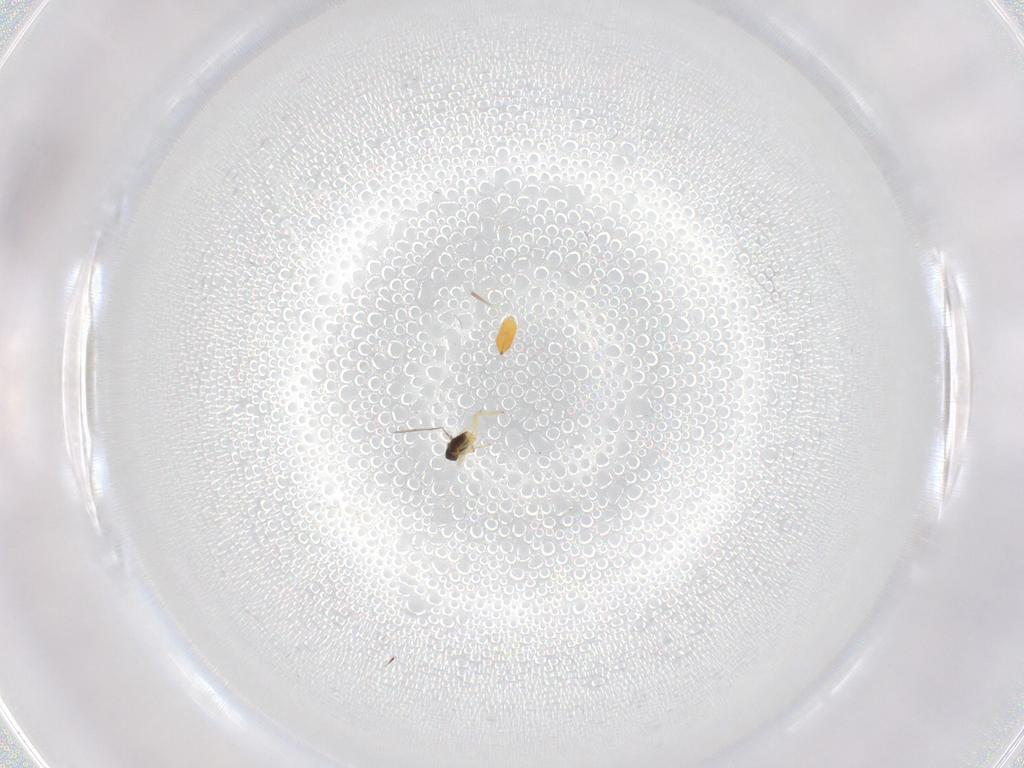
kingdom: Animalia
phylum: Arthropoda
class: Insecta
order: Hymenoptera
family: Eulophidae
